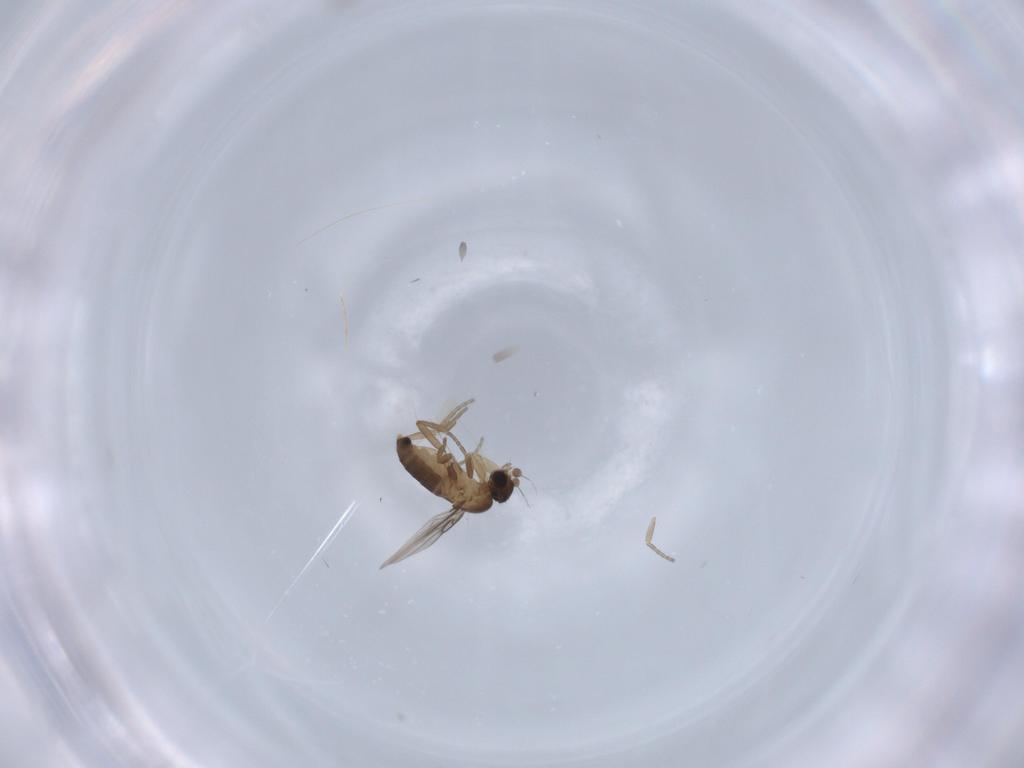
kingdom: Animalia
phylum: Arthropoda
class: Insecta
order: Diptera
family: Phoridae
